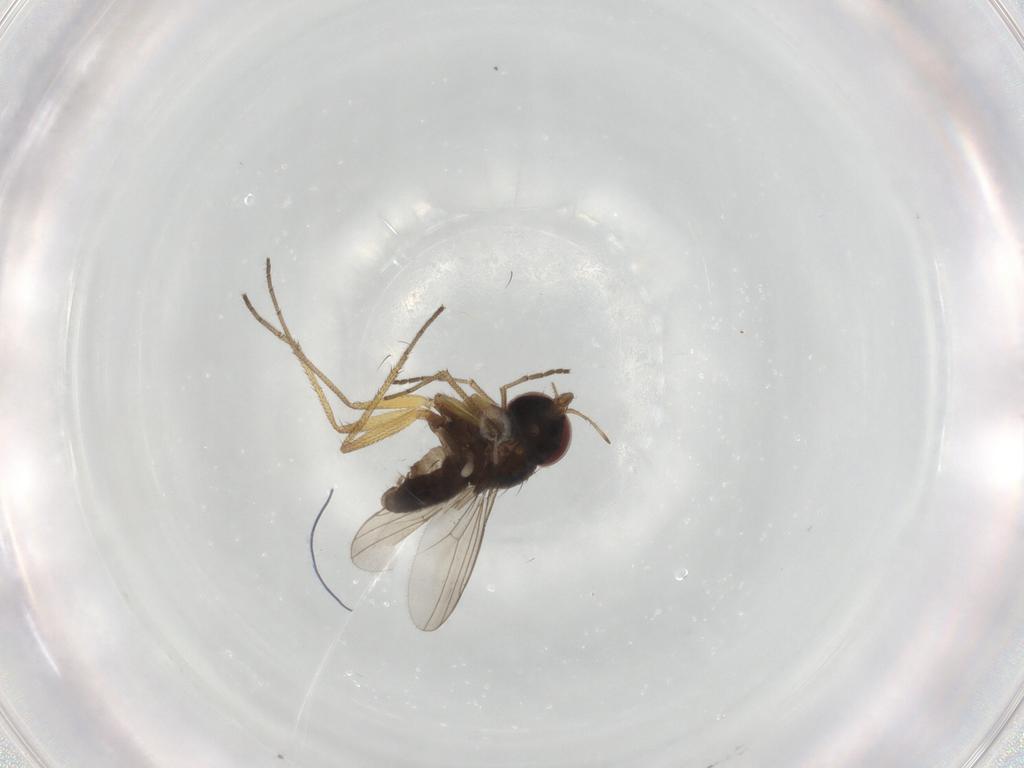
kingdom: Animalia
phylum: Arthropoda
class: Insecta
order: Diptera
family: Dolichopodidae
